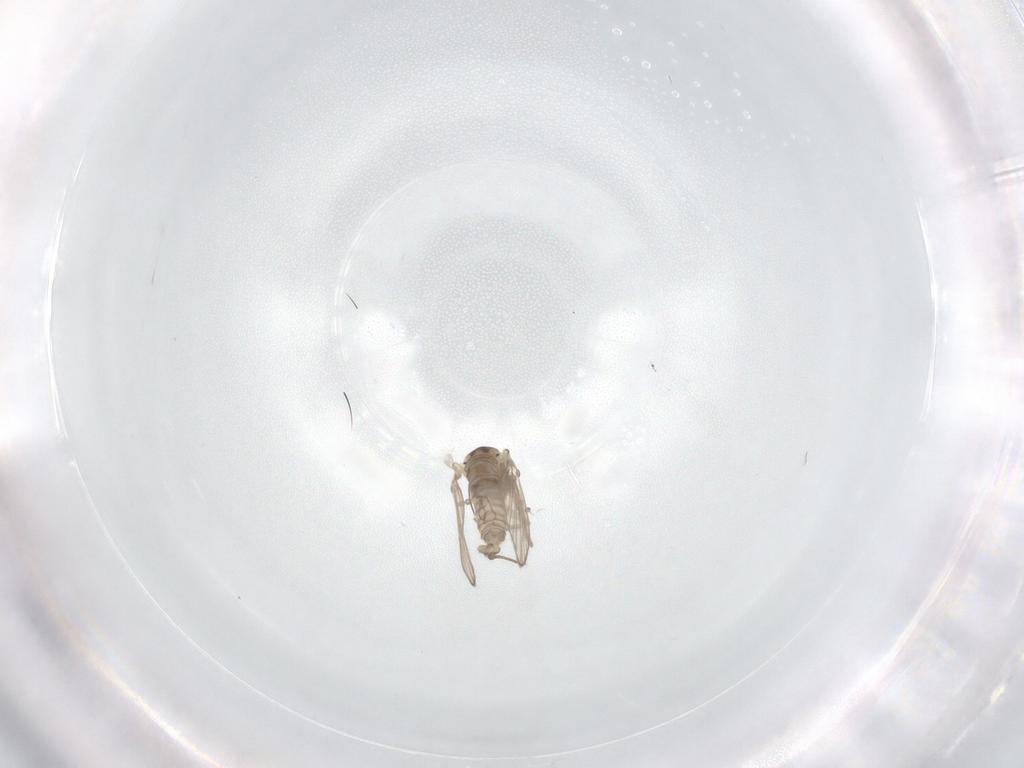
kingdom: Animalia
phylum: Arthropoda
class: Insecta
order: Diptera
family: Psychodidae
